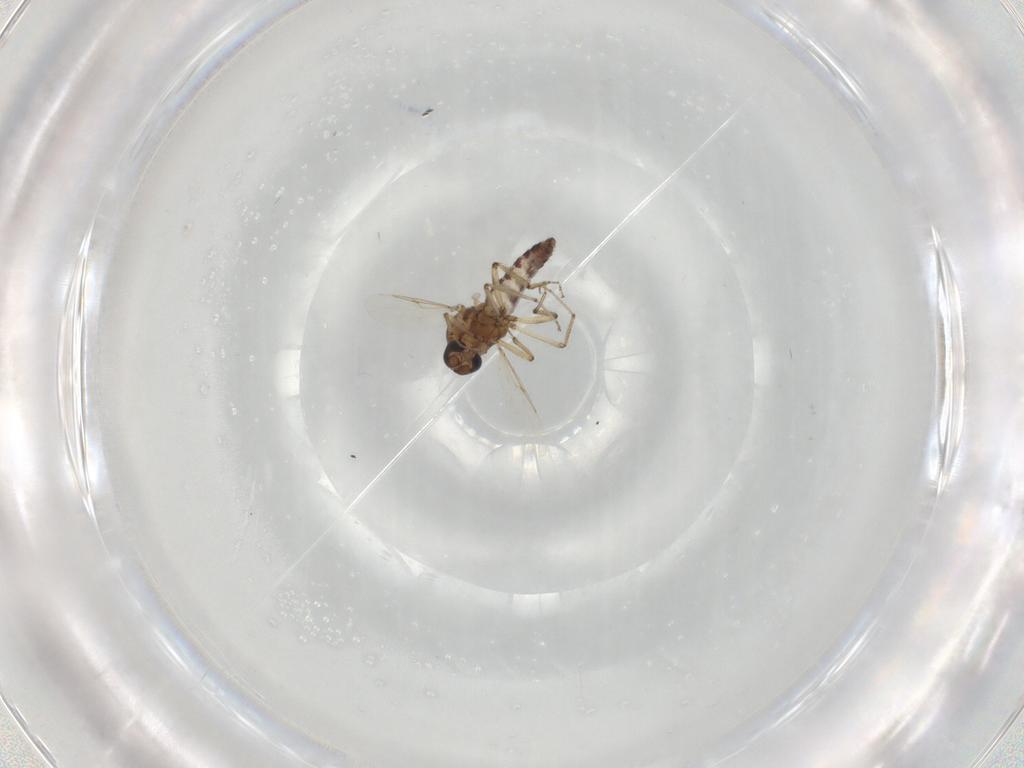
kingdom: Animalia
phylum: Arthropoda
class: Insecta
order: Diptera
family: Ceratopogonidae
